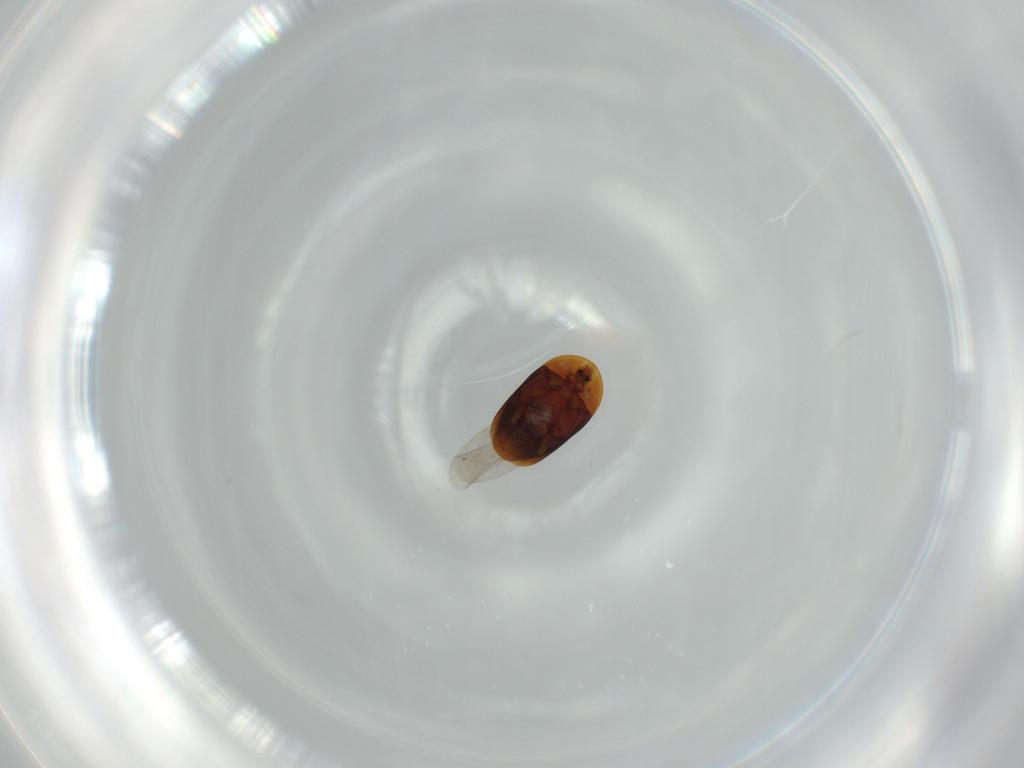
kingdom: Animalia
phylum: Arthropoda
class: Insecta
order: Coleoptera
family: Corylophidae
